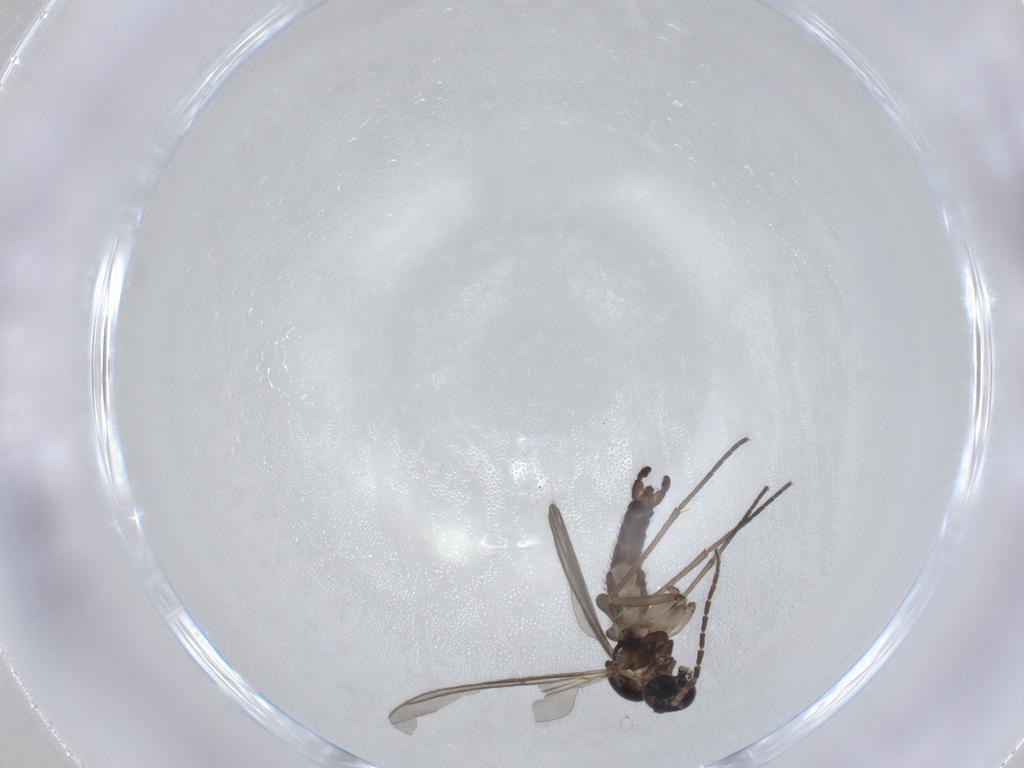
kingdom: Animalia
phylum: Arthropoda
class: Insecta
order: Diptera
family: Sciaridae
